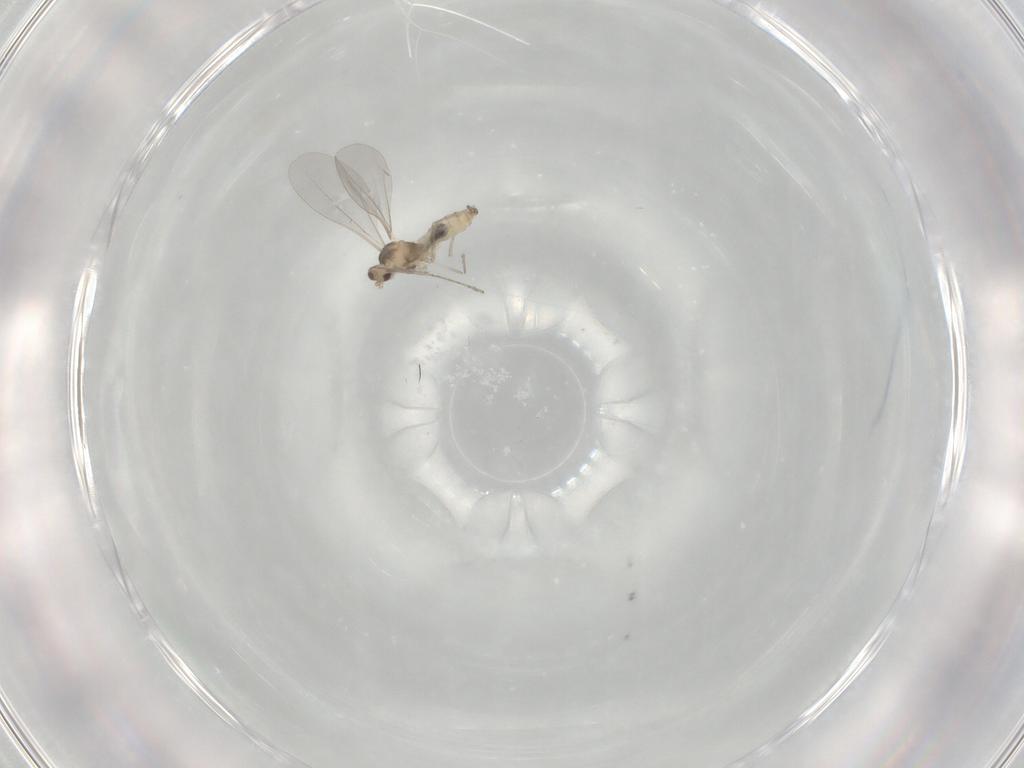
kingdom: Animalia
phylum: Arthropoda
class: Insecta
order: Diptera
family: Cecidomyiidae
